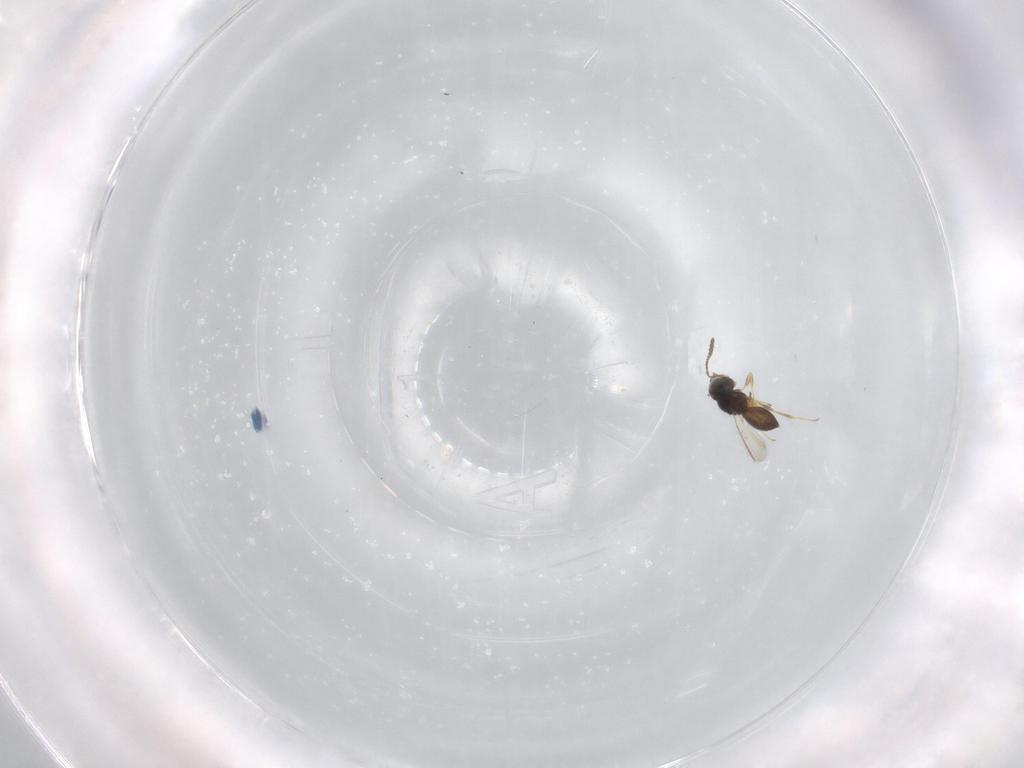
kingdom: Animalia
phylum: Arthropoda
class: Insecta
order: Hymenoptera
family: Scelionidae
